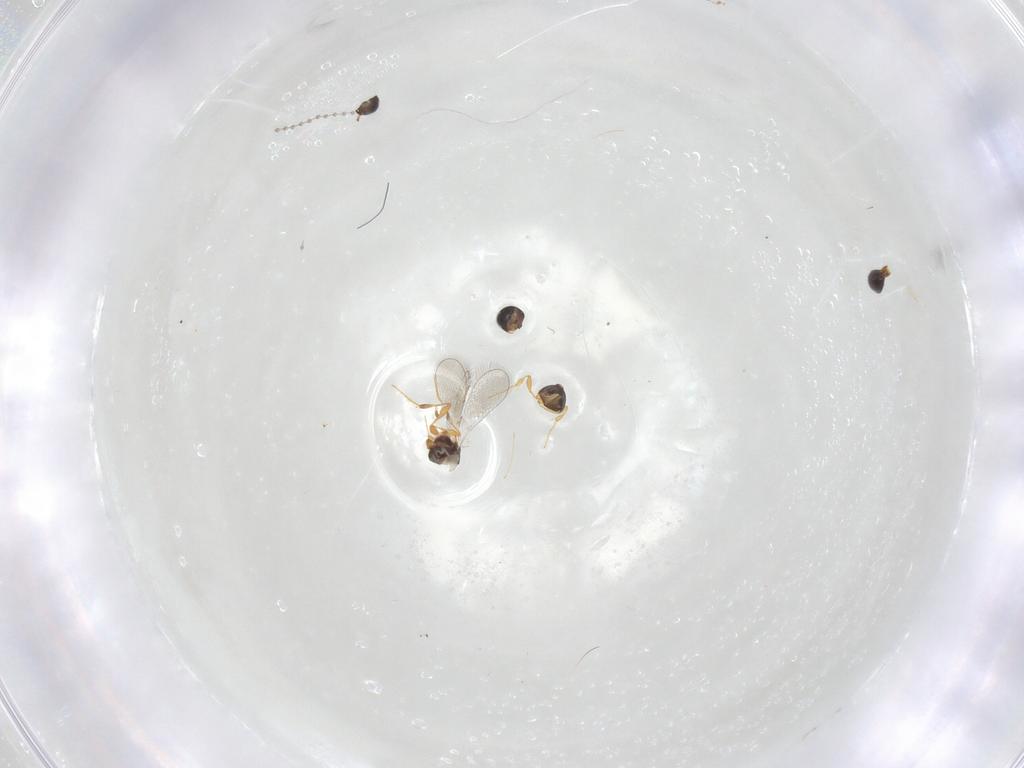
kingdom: Animalia
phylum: Arthropoda
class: Insecta
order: Hymenoptera
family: Platygastridae
